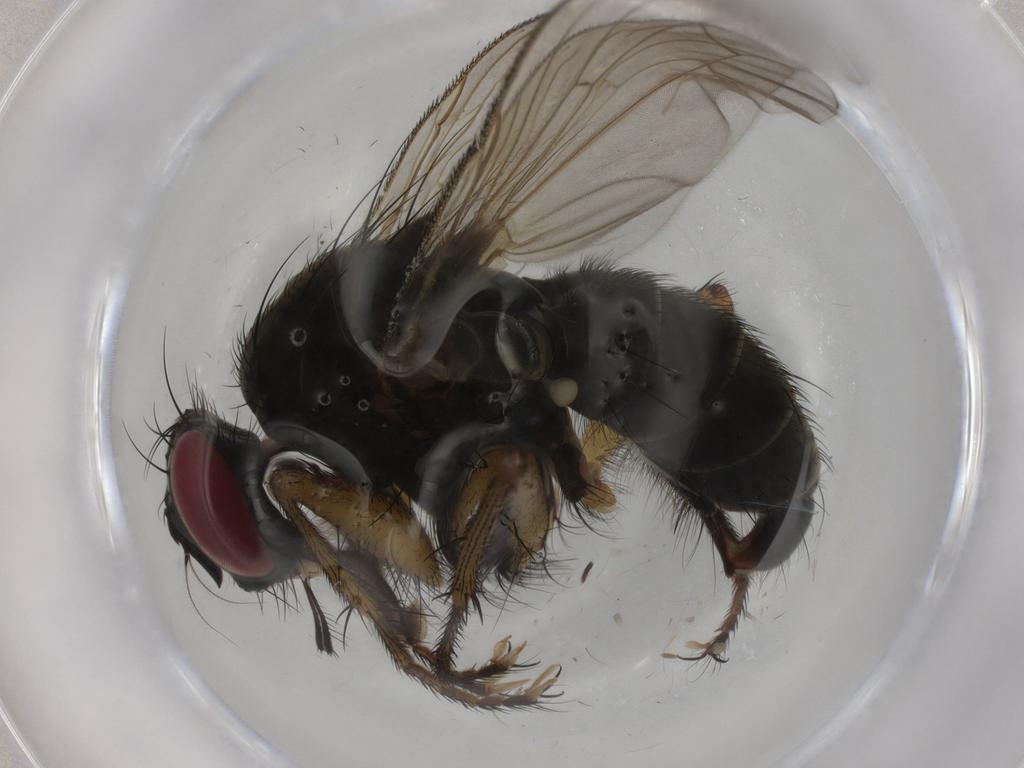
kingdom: Animalia
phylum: Arthropoda
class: Insecta
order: Diptera
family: Muscidae
